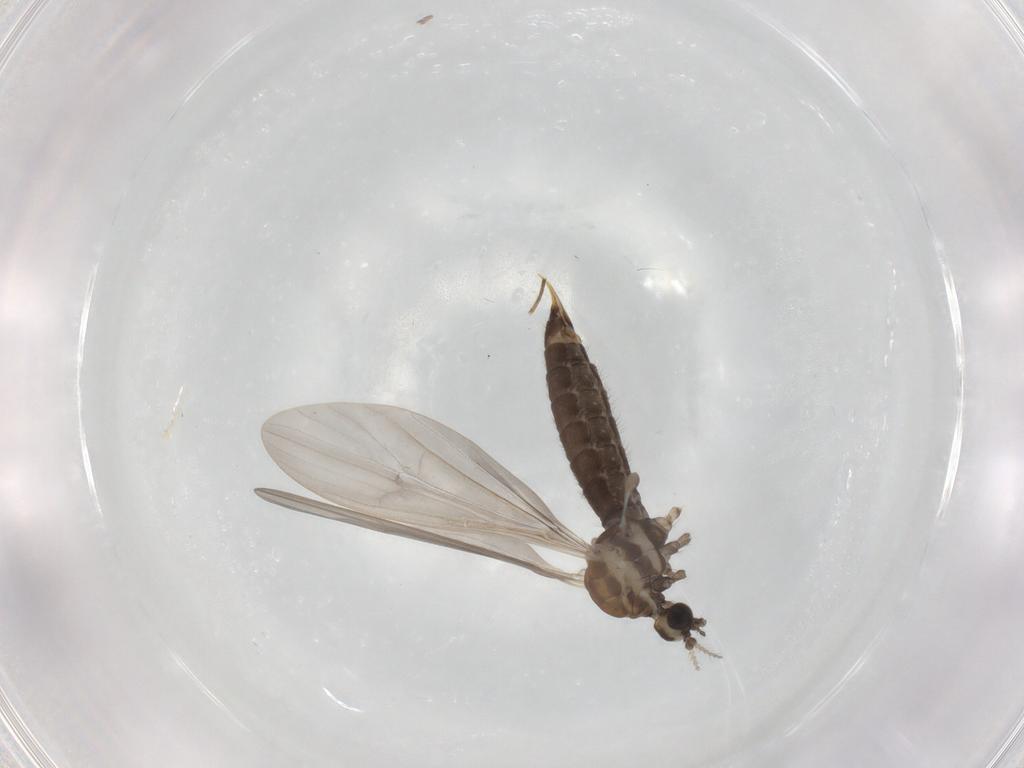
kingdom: Animalia
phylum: Arthropoda
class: Insecta
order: Diptera
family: Limoniidae
